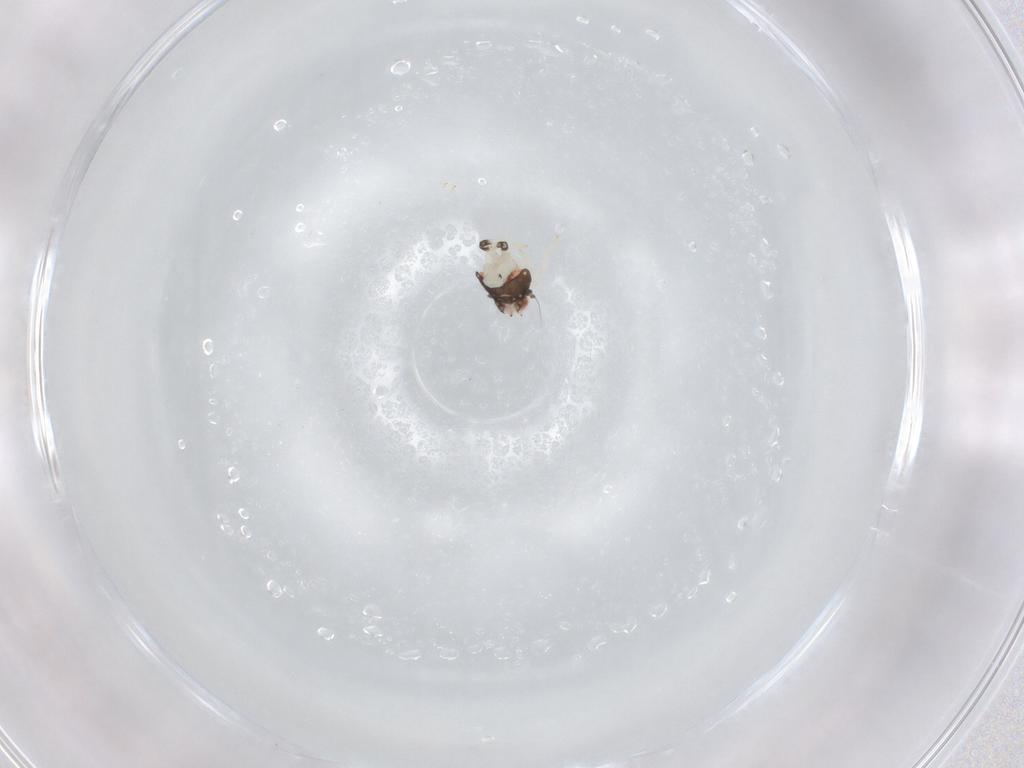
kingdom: Animalia
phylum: Arthropoda
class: Insecta
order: Hemiptera
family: Nogodinidae
